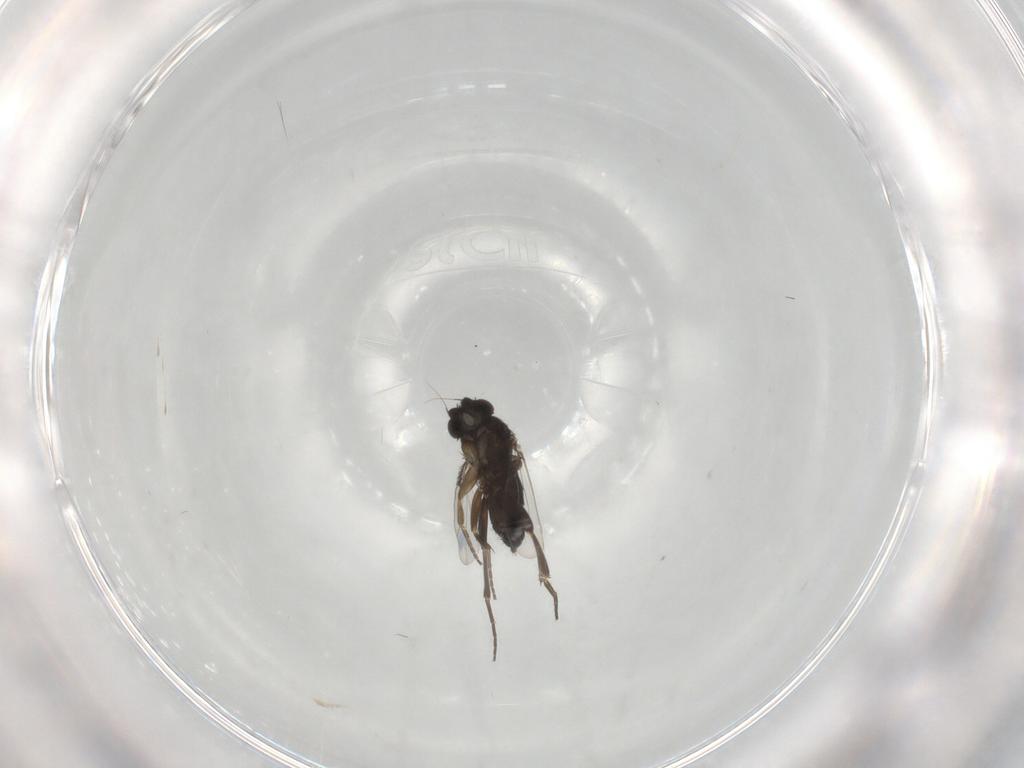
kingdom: Animalia
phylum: Arthropoda
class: Insecta
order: Diptera
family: Phoridae
